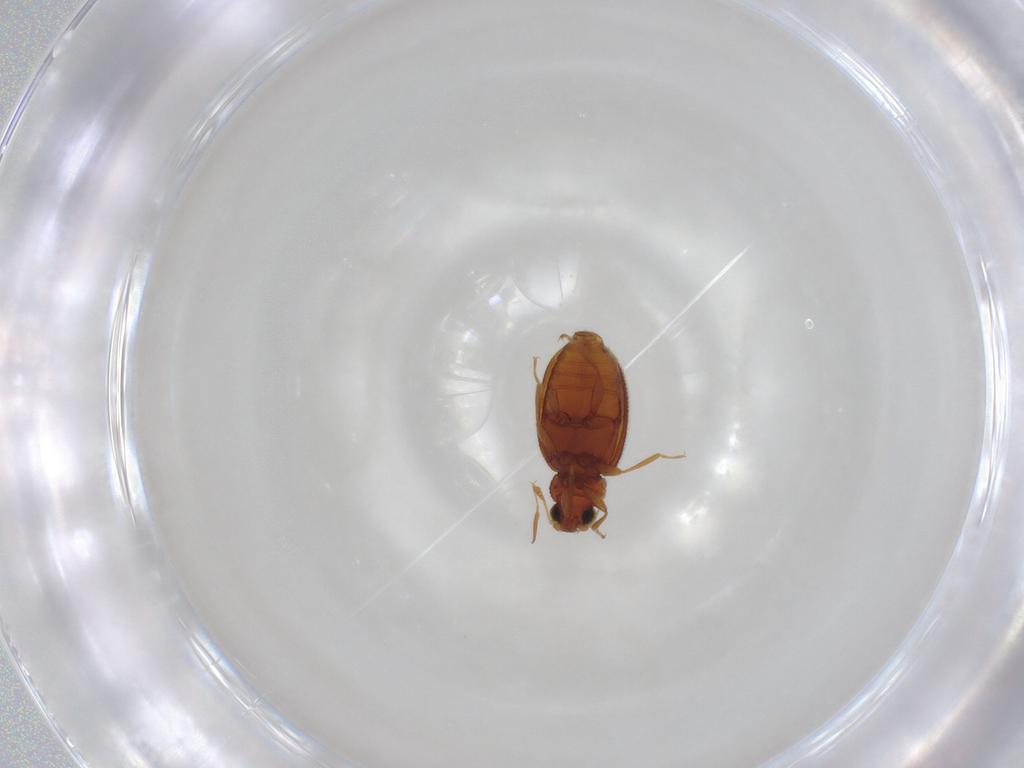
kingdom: Animalia
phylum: Arthropoda
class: Insecta
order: Coleoptera
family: Latridiidae
